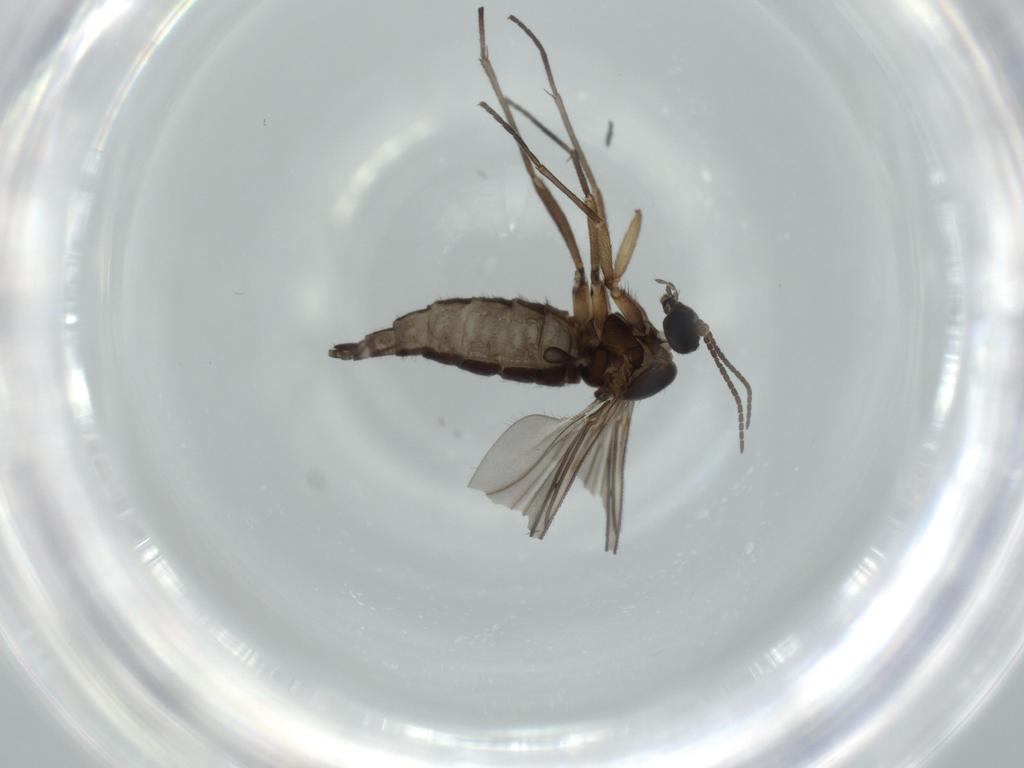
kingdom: Animalia
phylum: Arthropoda
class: Insecta
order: Diptera
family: Sciaridae
